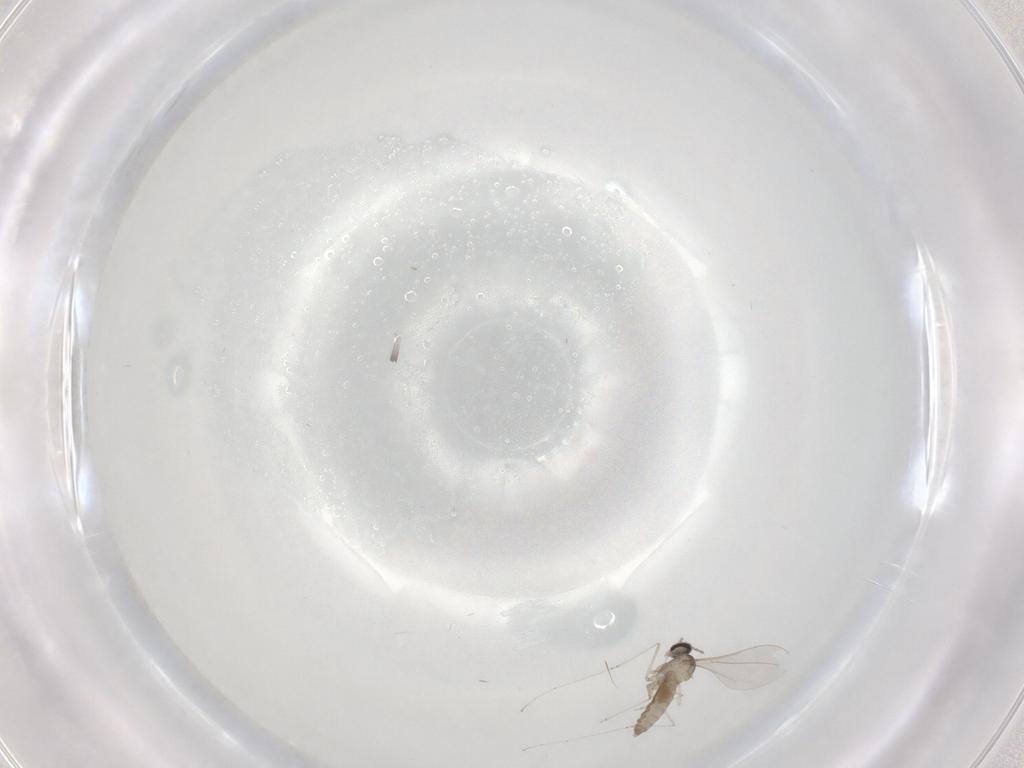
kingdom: Animalia
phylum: Arthropoda
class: Insecta
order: Diptera
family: Cecidomyiidae
